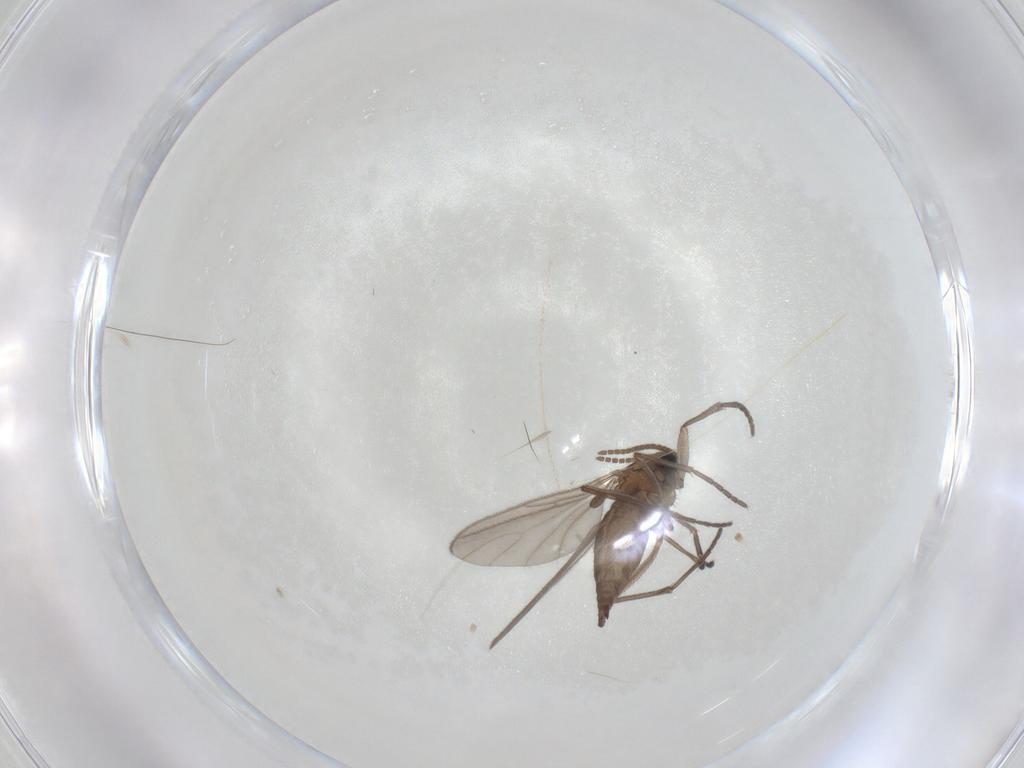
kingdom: Animalia
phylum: Arthropoda
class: Insecta
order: Diptera
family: Sciaridae
